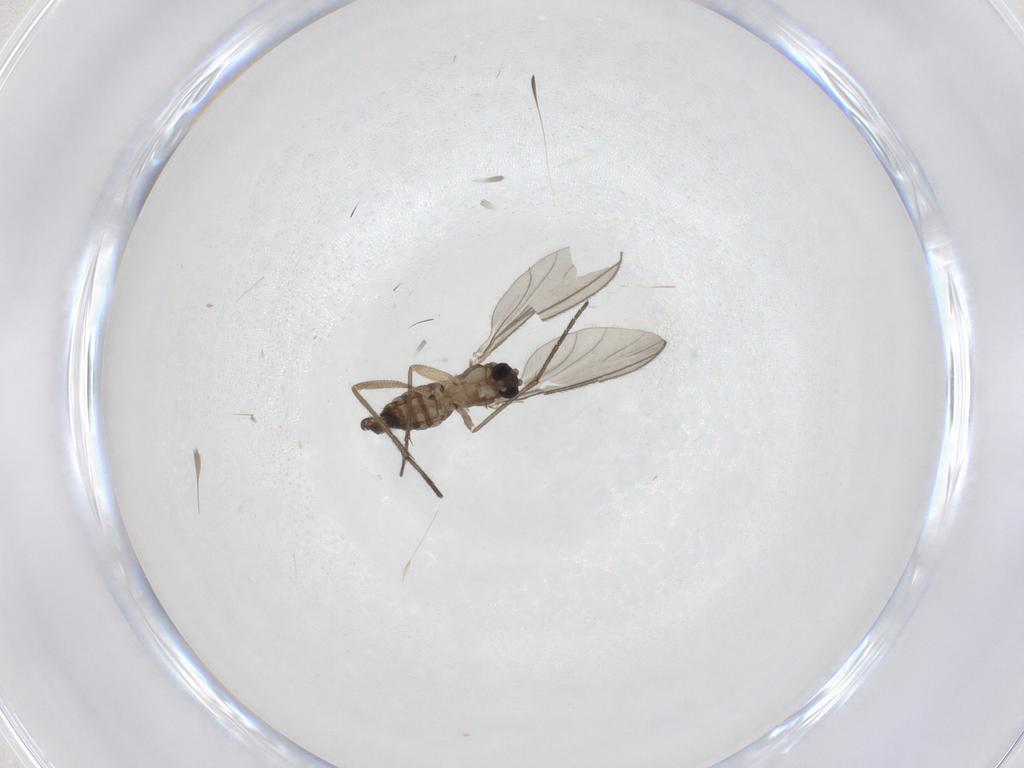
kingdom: Animalia
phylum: Arthropoda
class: Insecta
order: Diptera
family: Sciaridae
